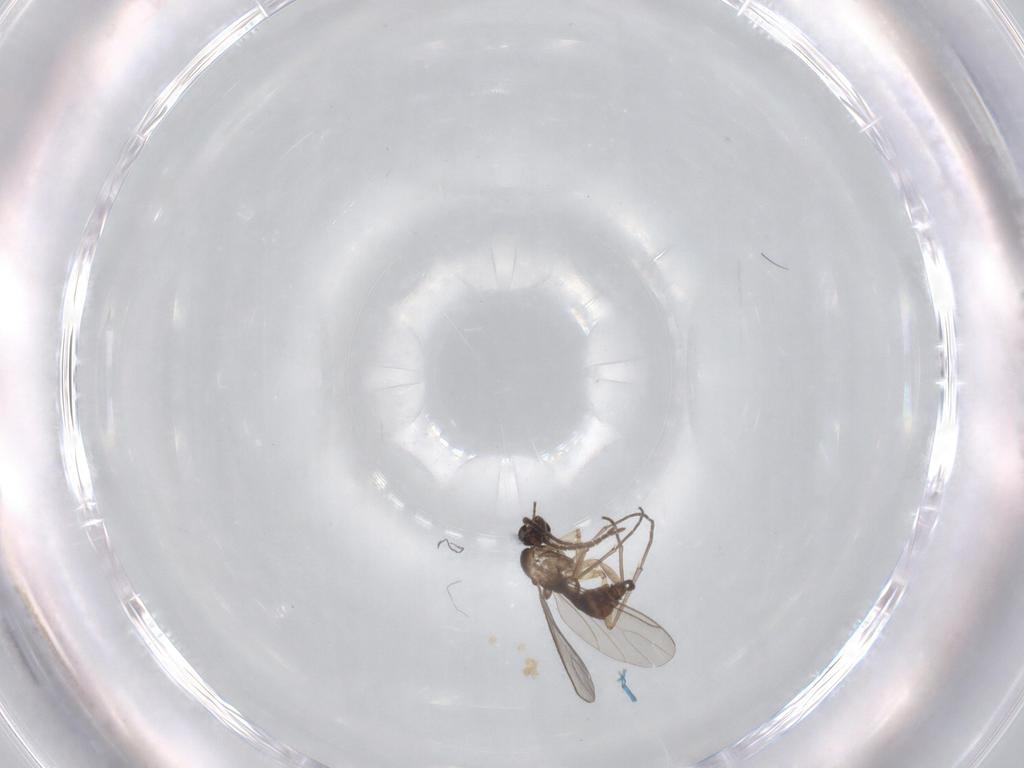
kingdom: Animalia
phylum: Arthropoda
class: Insecta
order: Diptera
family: Sciaridae
